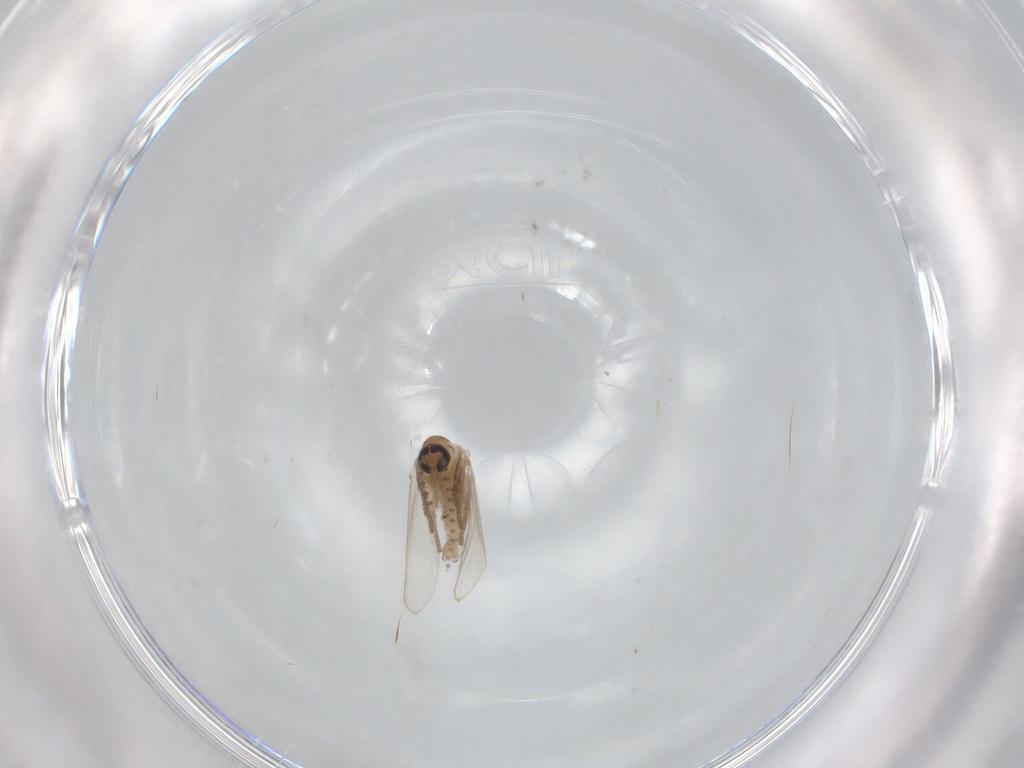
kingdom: Animalia
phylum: Arthropoda
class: Insecta
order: Diptera
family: Psychodidae
